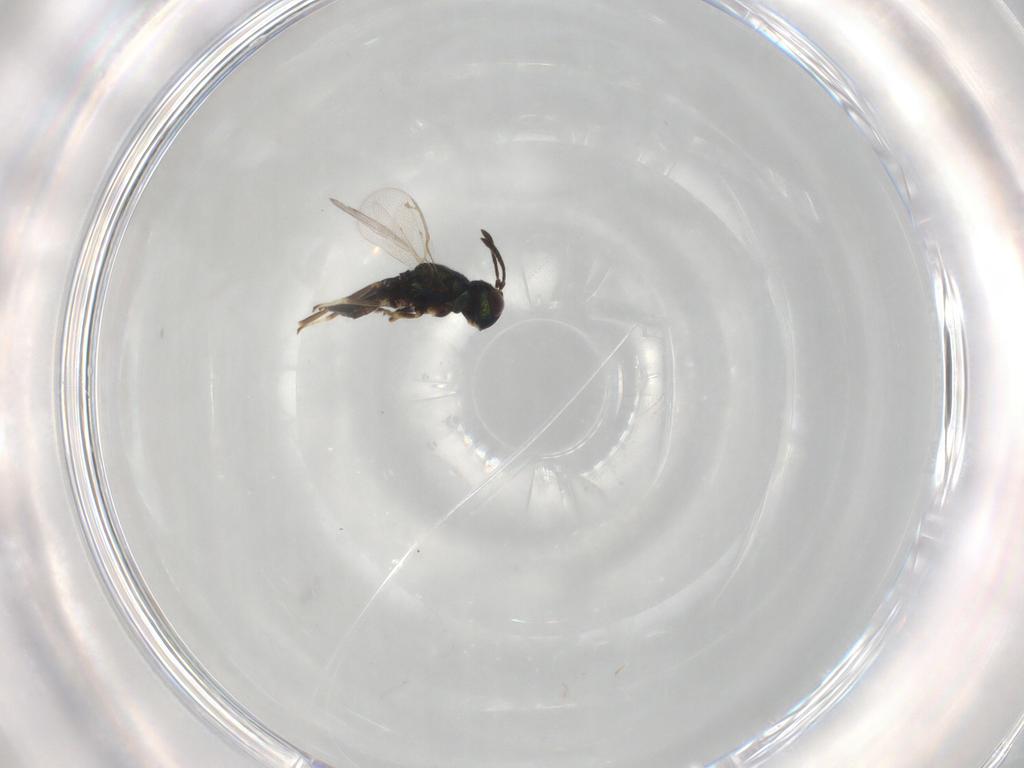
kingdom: Animalia
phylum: Arthropoda
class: Insecta
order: Hymenoptera
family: Eupelmidae
